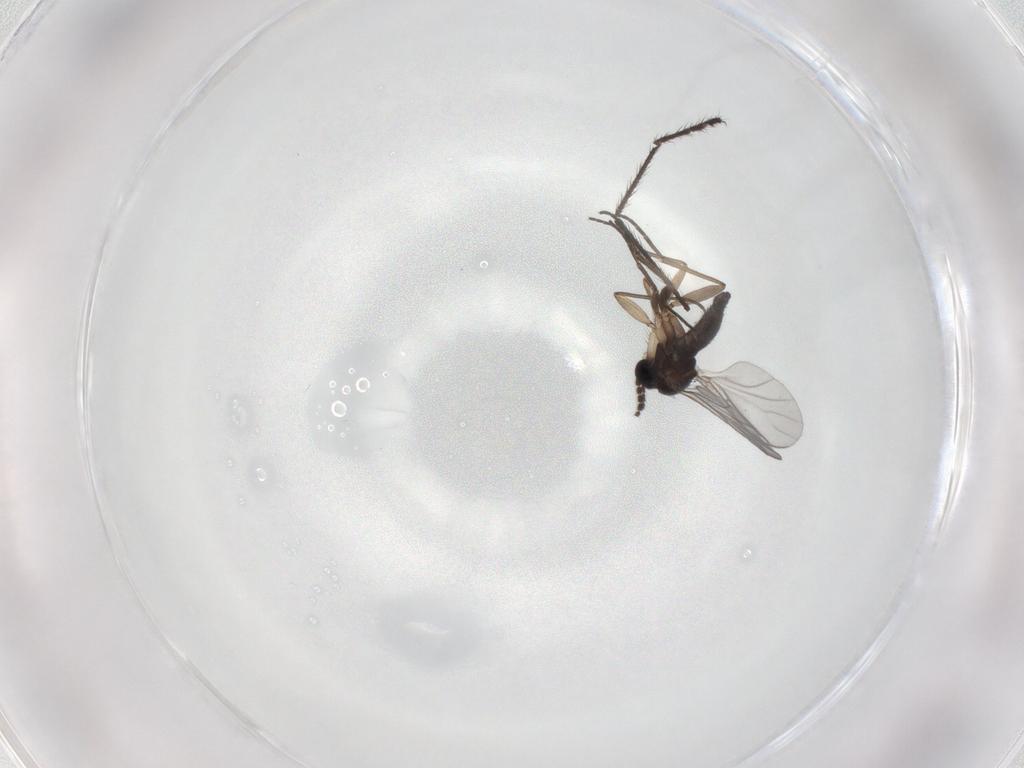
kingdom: Animalia
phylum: Arthropoda
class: Insecta
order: Diptera
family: Sciaridae
